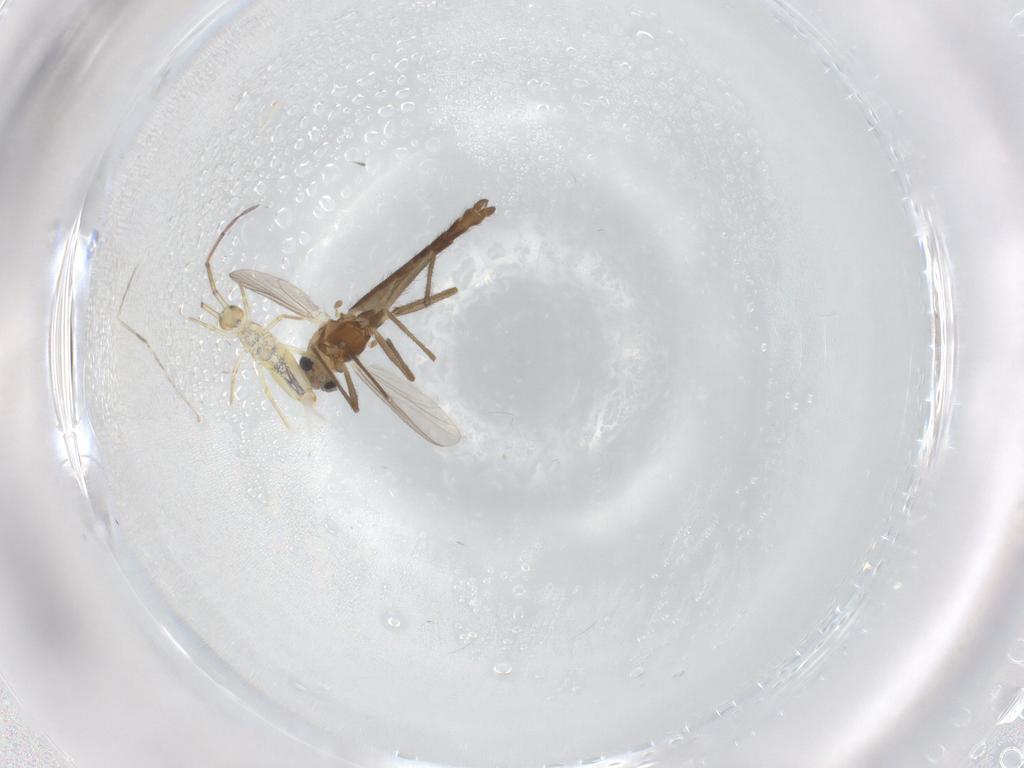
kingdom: Animalia
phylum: Arthropoda
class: Insecta
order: Diptera
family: Chironomidae
